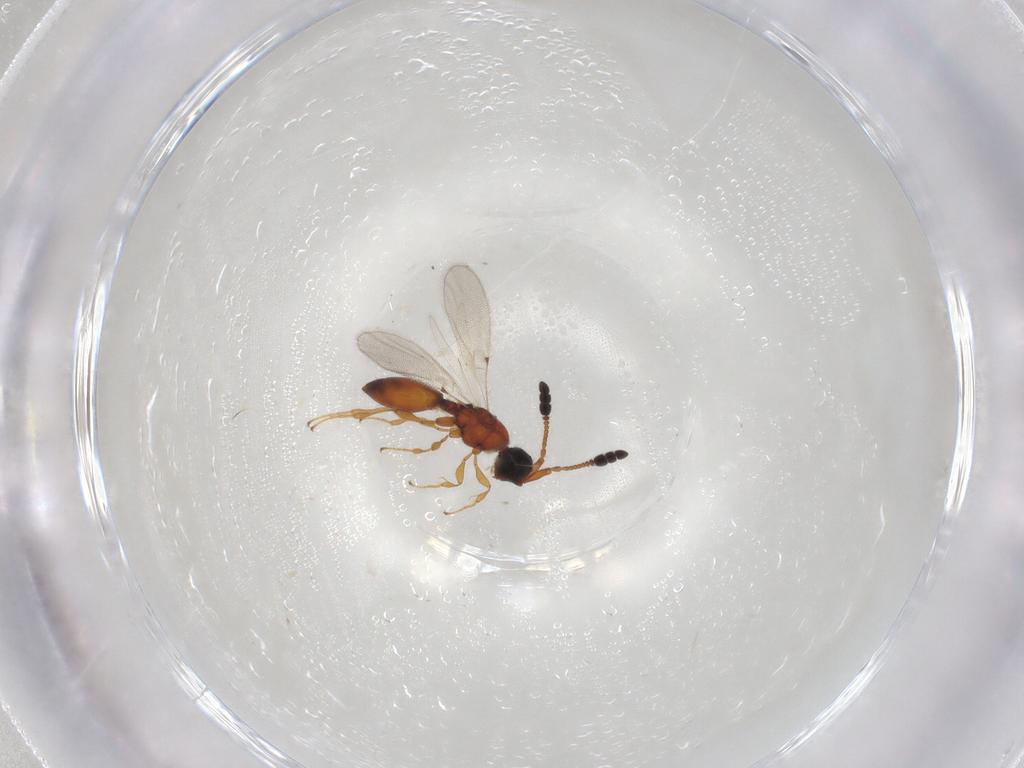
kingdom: Animalia
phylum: Arthropoda
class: Insecta
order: Hymenoptera
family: Diapriidae
